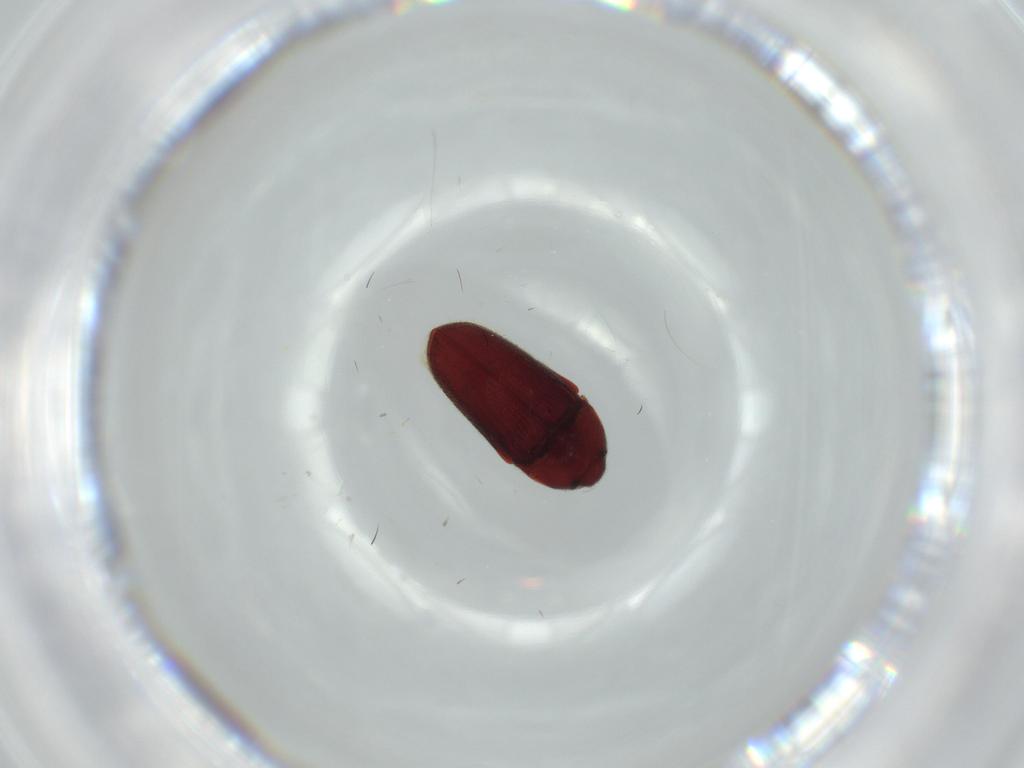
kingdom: Animalia
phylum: Arthropoda
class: Insecta
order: Coleoptera
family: Throscidae
